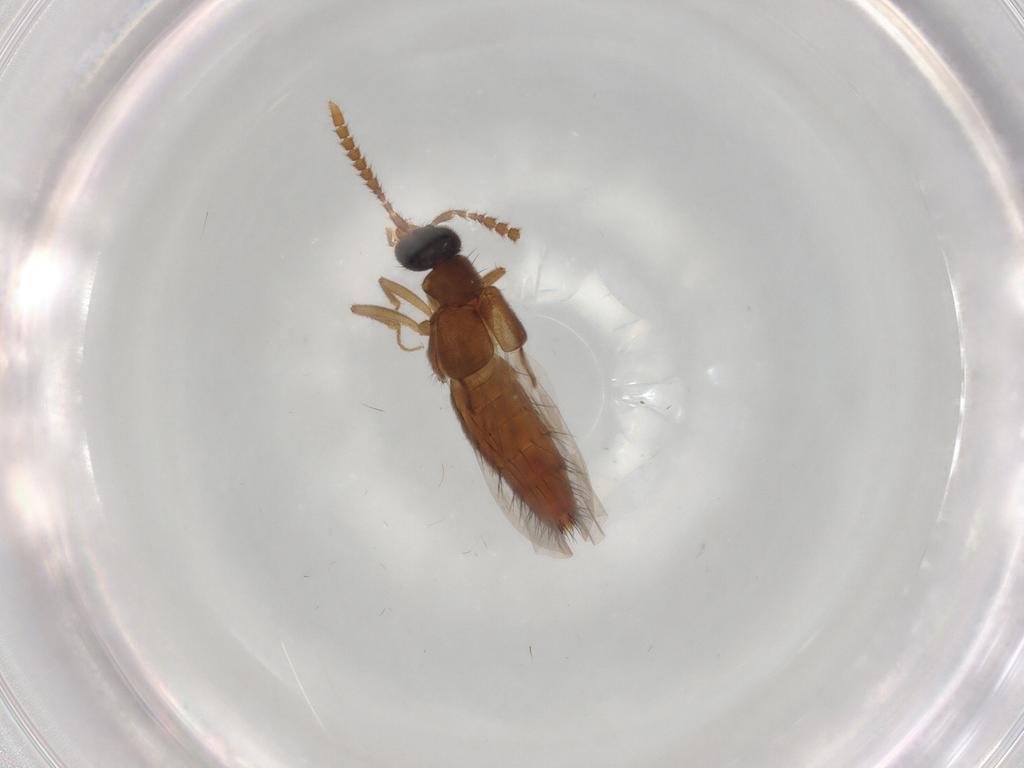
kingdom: Animalia
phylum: Arthropoda
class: Insecta
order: Coleoptera
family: Staphylinidae
